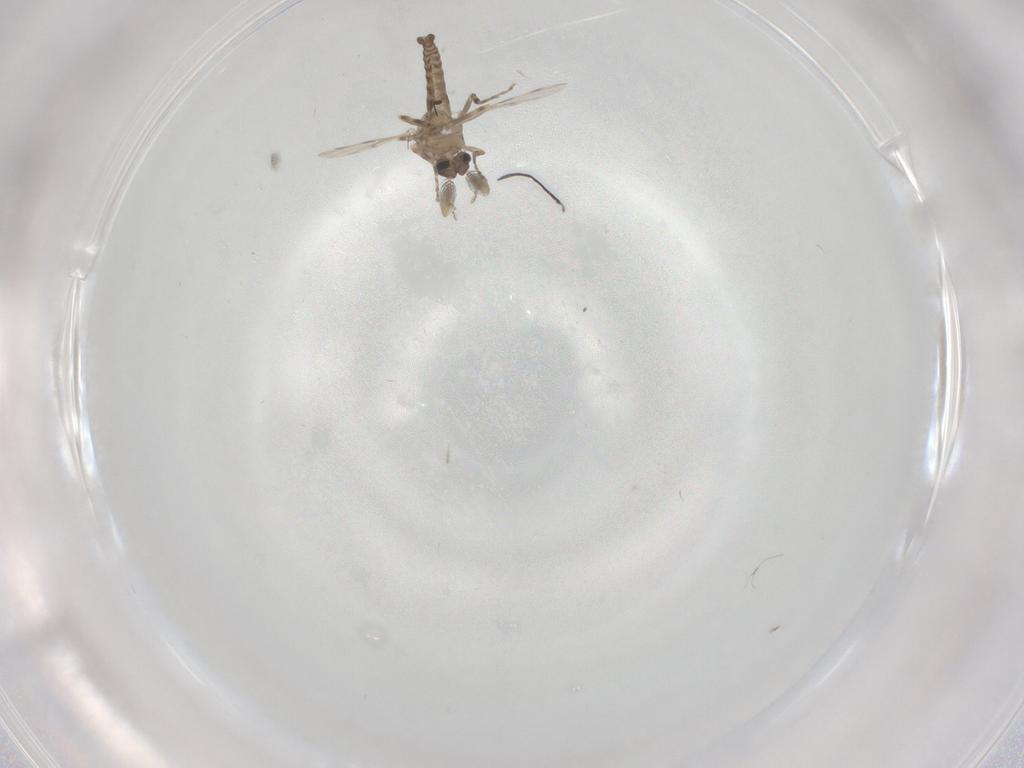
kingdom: Animalia
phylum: Arthropoda
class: Insecta
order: Diptera
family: Ceratopogonidae
